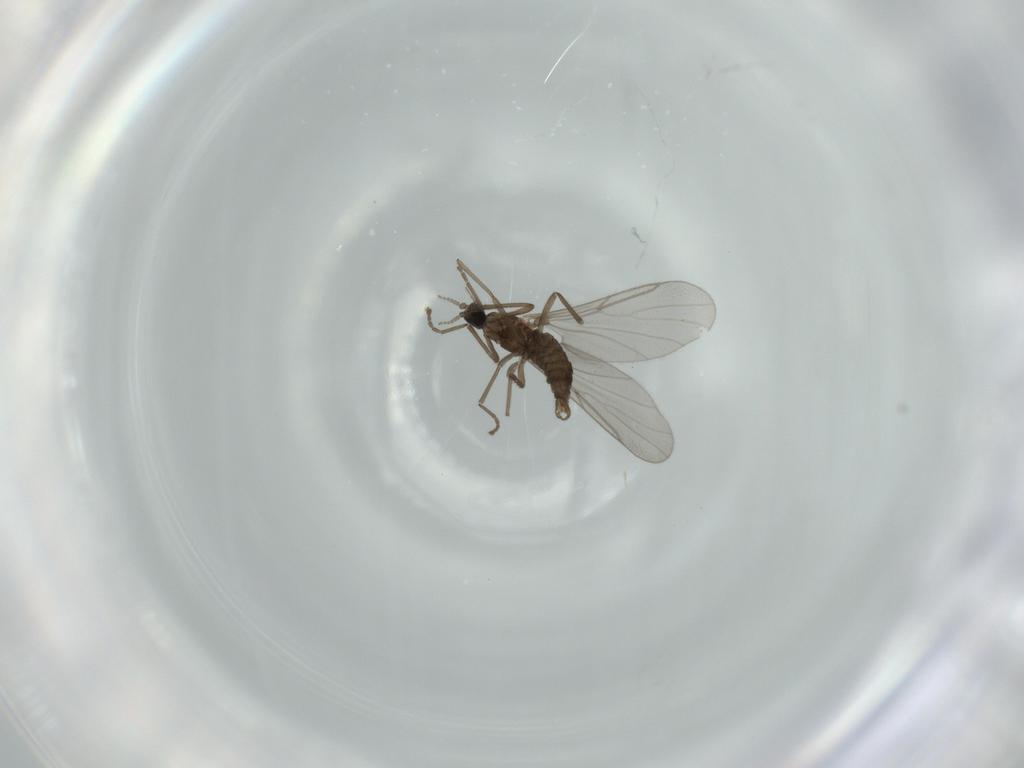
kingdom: Animalia
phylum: Arthropoda
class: Insecta
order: Diptera
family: Cecidomyiidae
